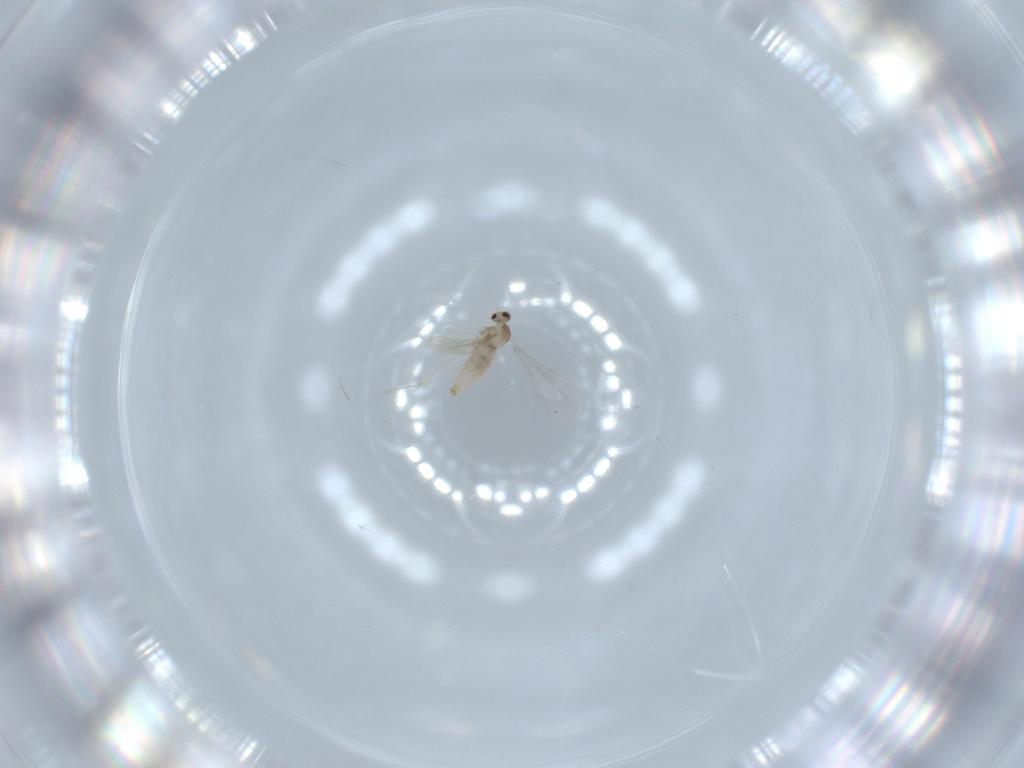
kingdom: Animalia
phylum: Arthropoda
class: Insecta
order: Diptera
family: Cecidomyiidae
